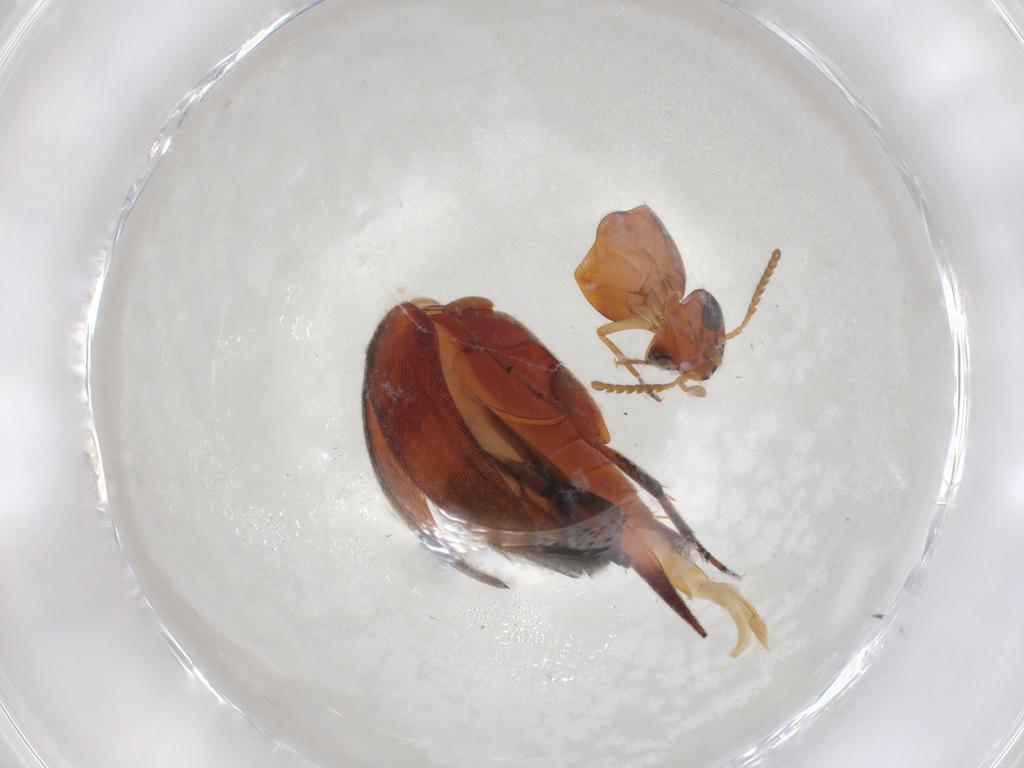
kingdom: Animalia
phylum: Arthropoda
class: Insecta
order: Coleoptera
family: Mordellidae
